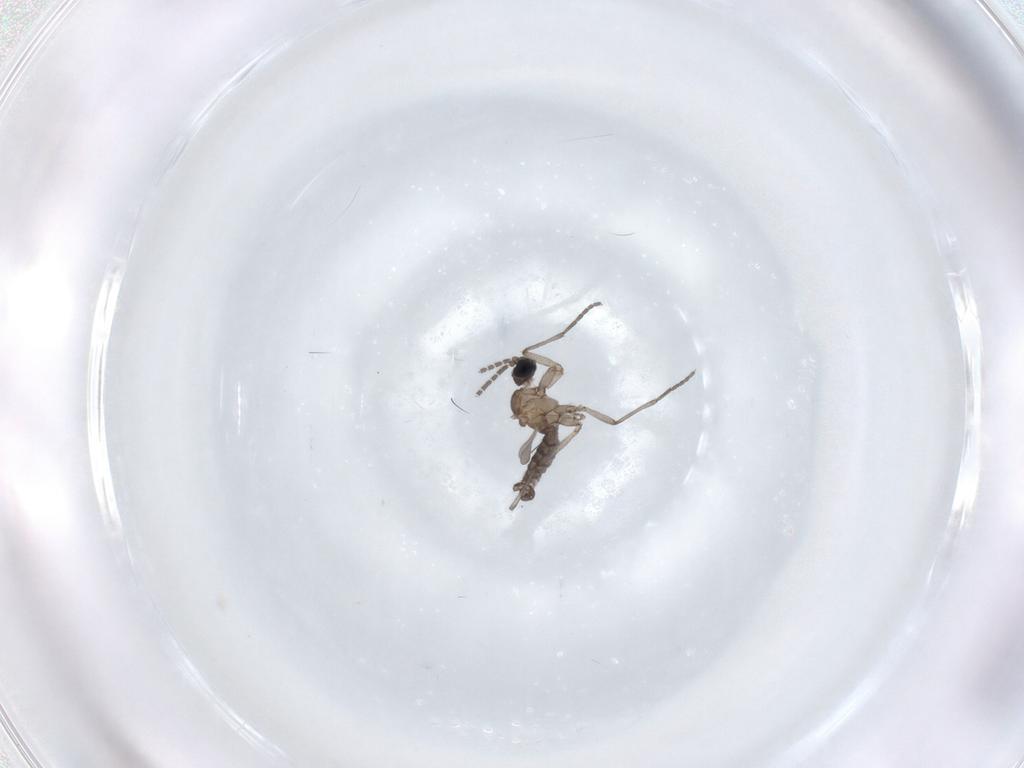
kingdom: Animalia
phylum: Arthropoda
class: Insecta
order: Diptera
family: Sciaridae
